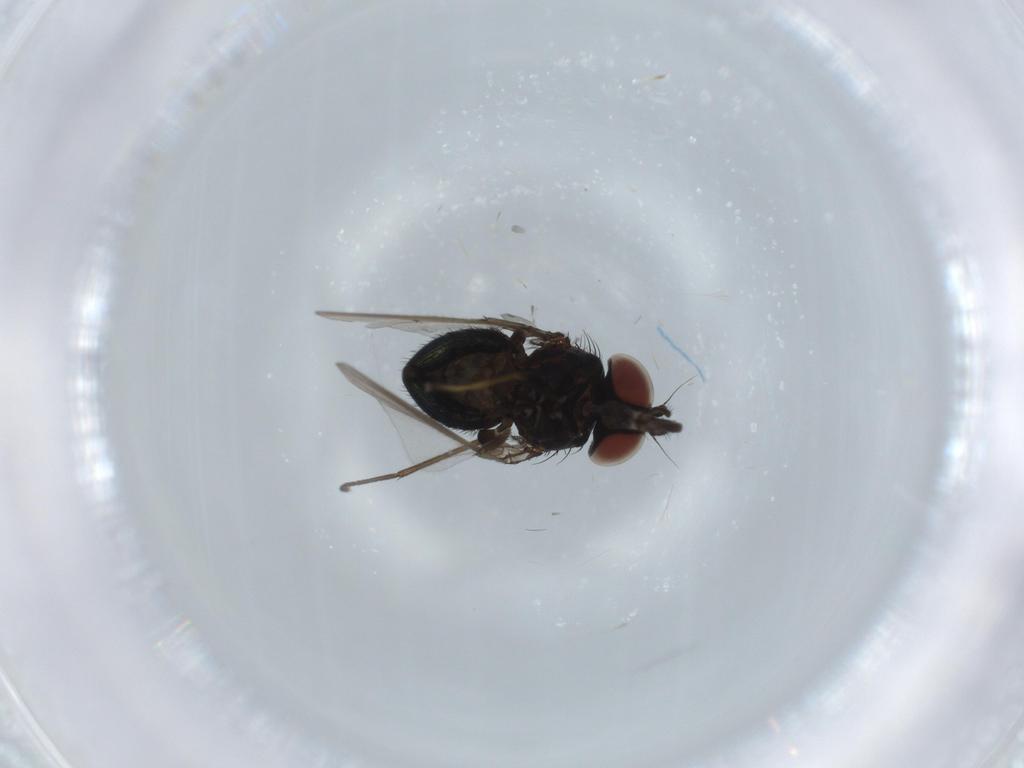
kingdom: Animalia
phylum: Arthropoda
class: Insecta
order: Diptera
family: Milichiidae
